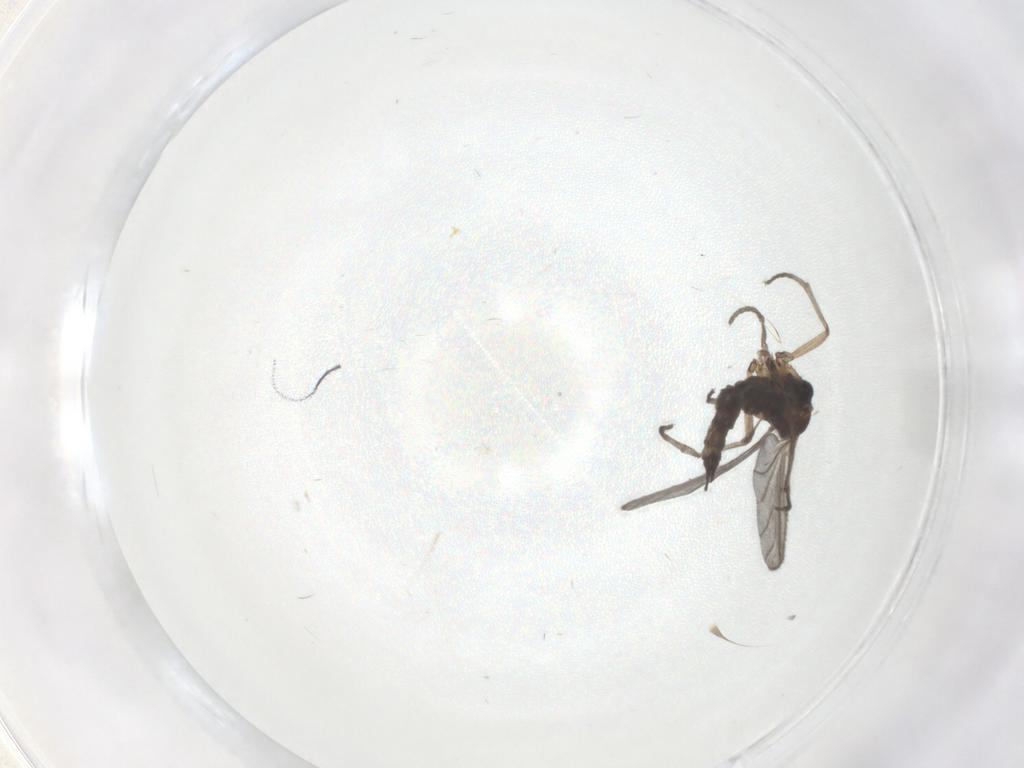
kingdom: Animalia
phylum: Arthropoda
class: Insecta
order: Diptera
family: Sciaridae
